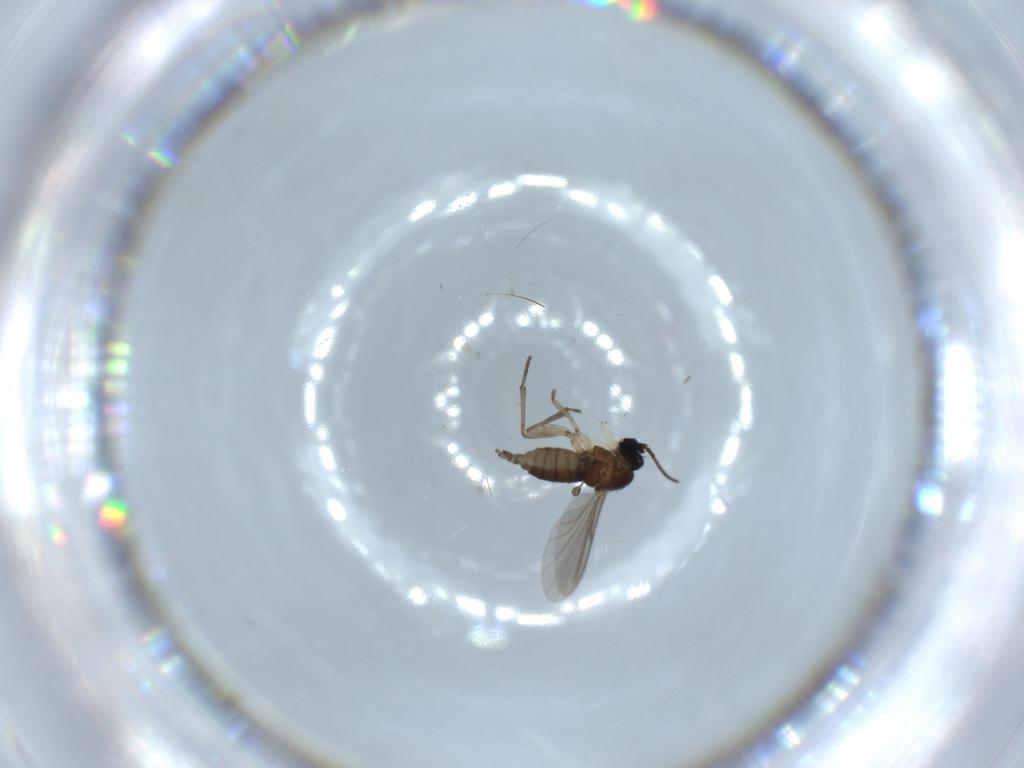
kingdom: Animalia
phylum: Arthropoda
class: Insecta
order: Diptera
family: Sciaridae
